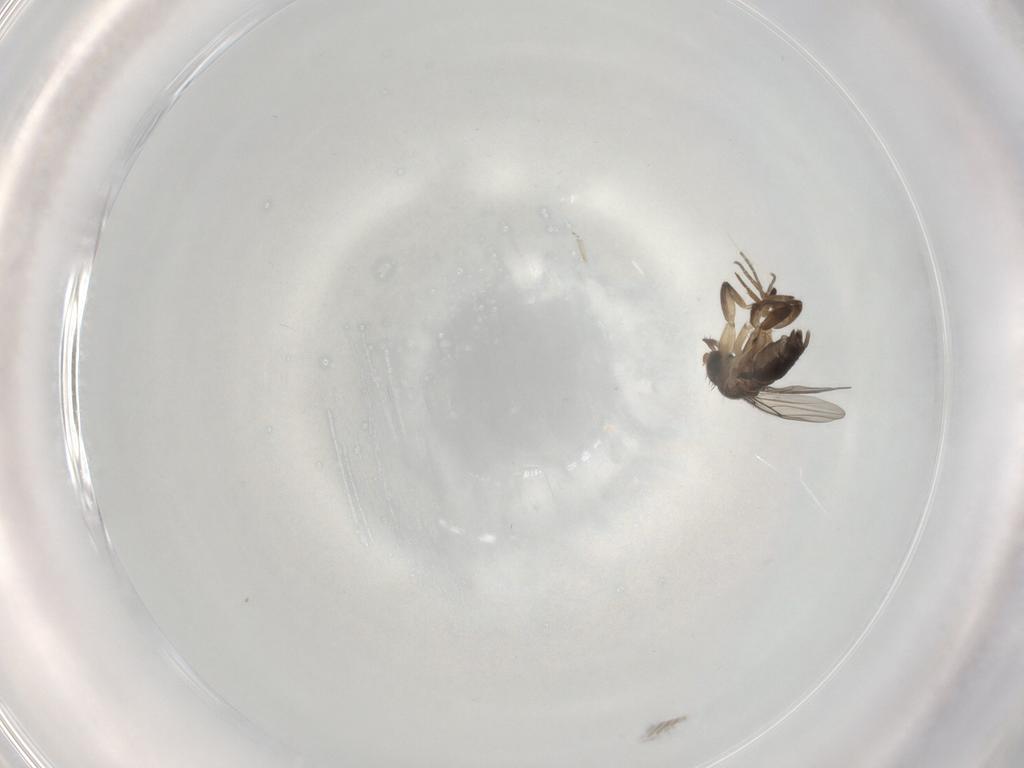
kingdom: Animalia
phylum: Arthropoda
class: Insecta
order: Diptera
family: Phoridae
